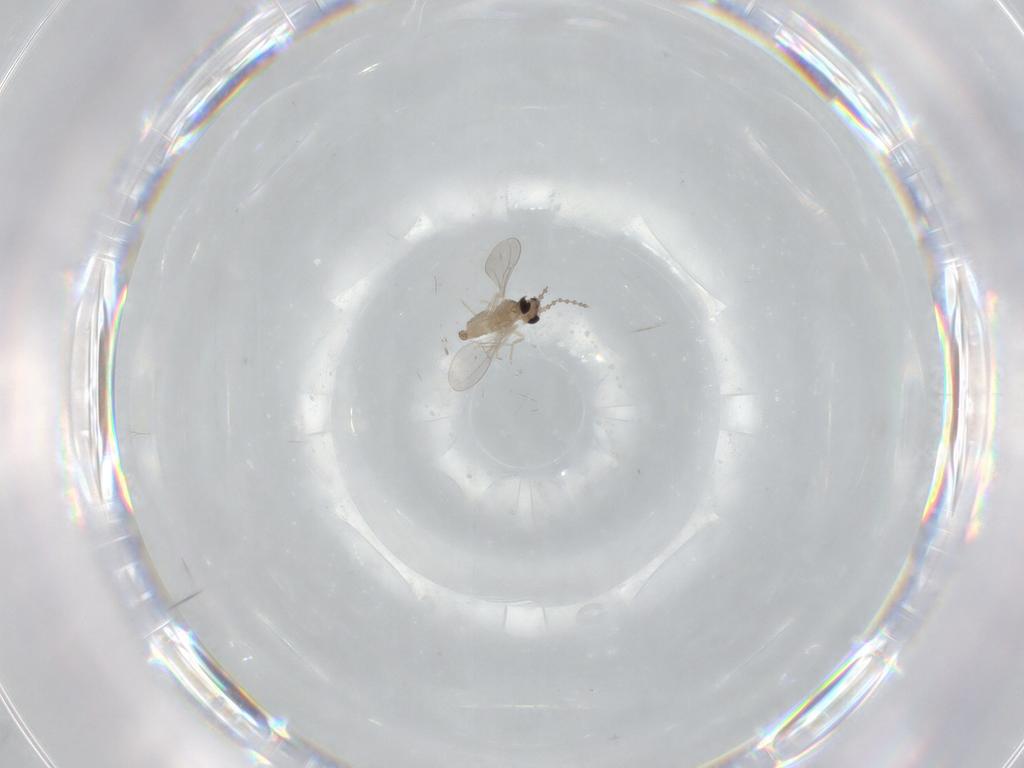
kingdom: Animalia
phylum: Arthropoda
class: Insecta
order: Diptera
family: Cecidomyiidae
